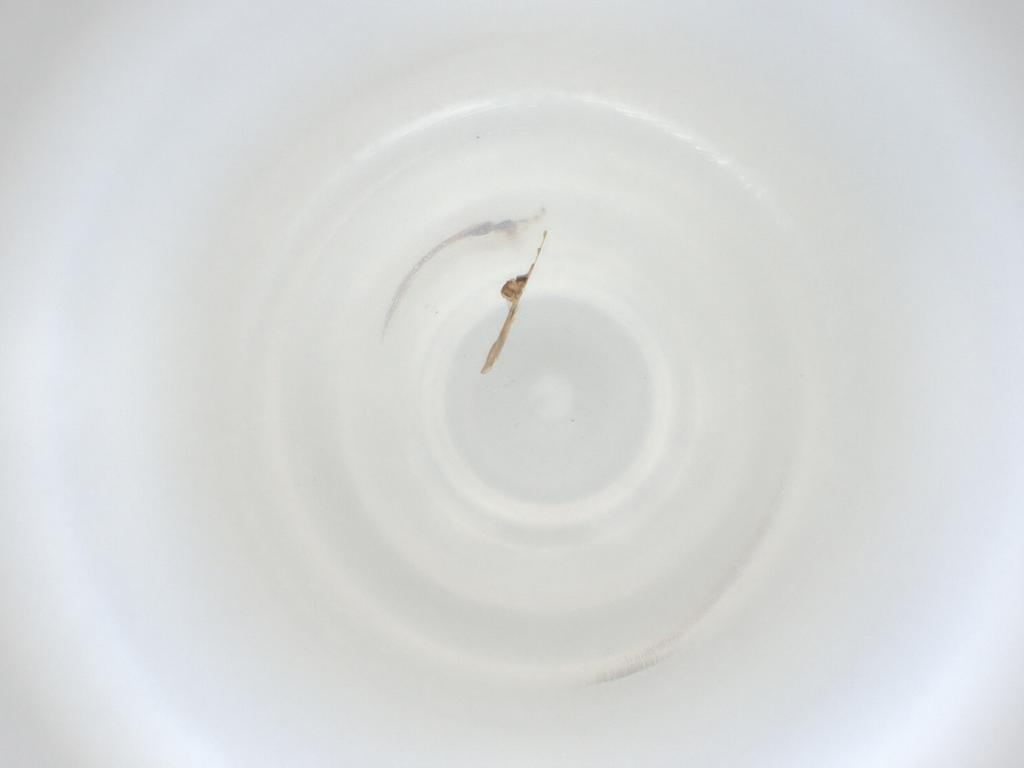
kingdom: Animalia
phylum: Arthropoda
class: Insecta
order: Diptera
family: Cecidomyiidae
